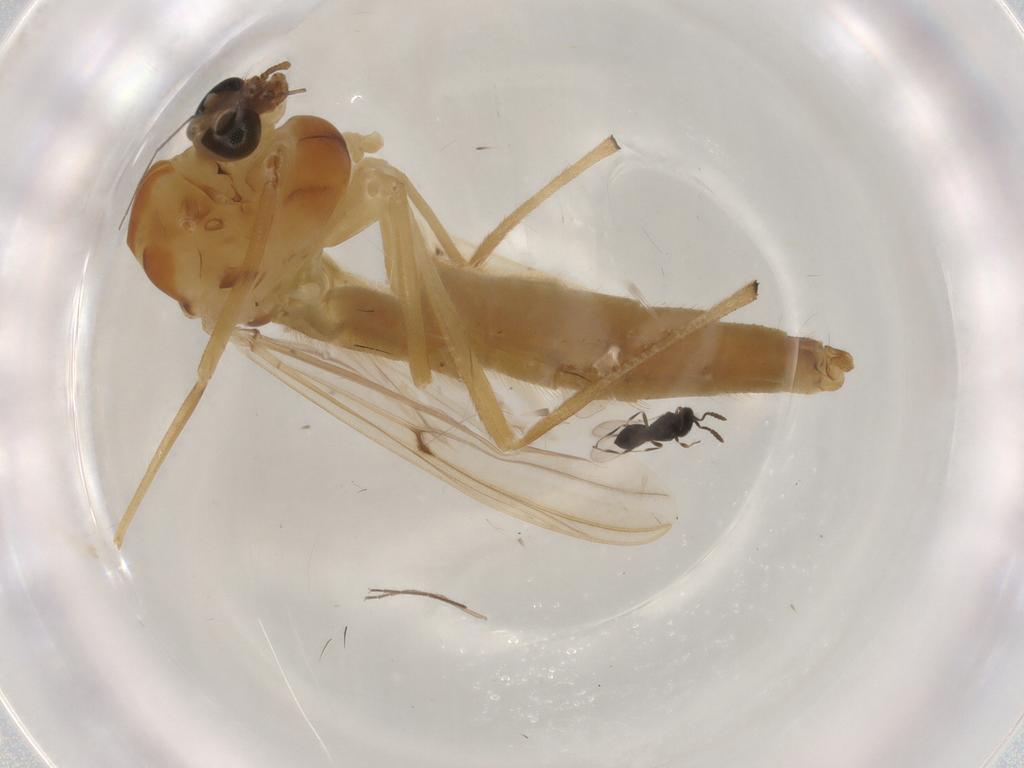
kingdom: Animalia
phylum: Arthropoda
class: Insecta
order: Diptera
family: Chironomidae
